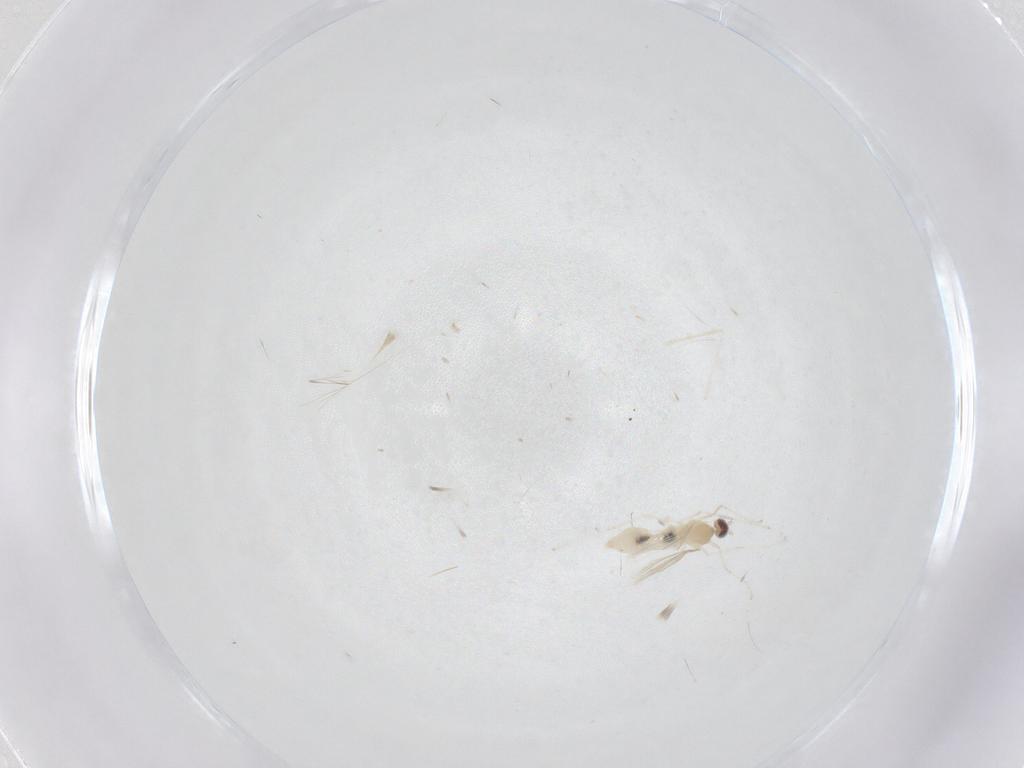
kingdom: Animalia
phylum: Arthropoda
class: Insecta
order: Diptera
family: Cecidomyiidae
